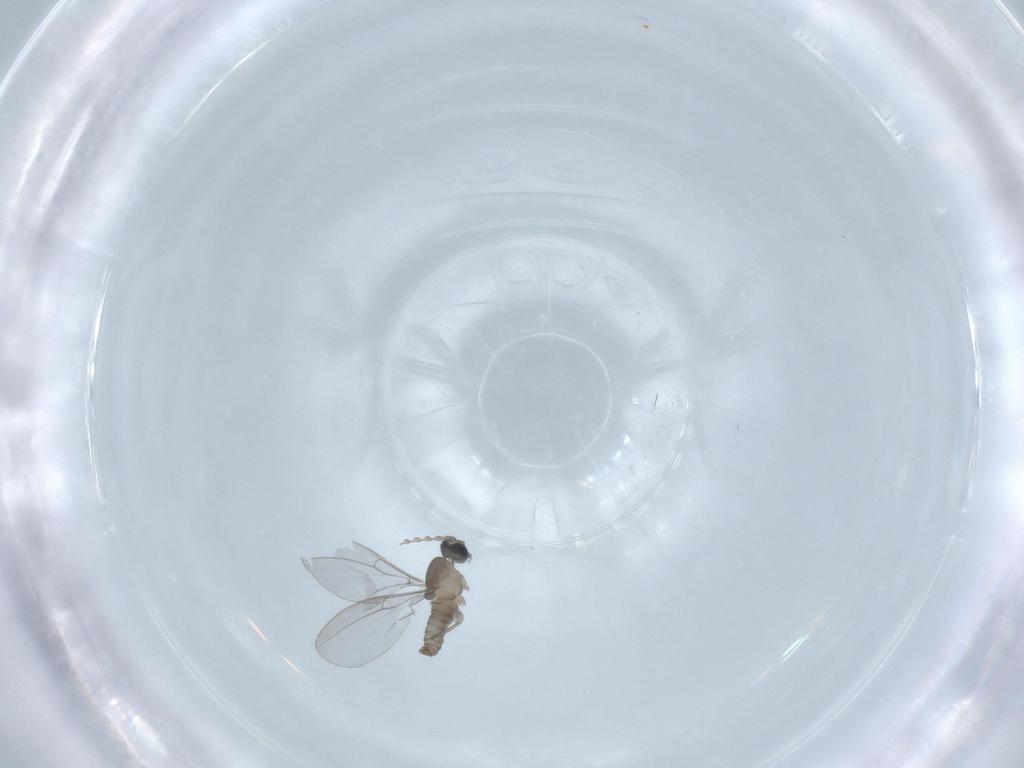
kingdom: Animalia
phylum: Arthropoda
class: Insecta
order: Diptera
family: Cecidomyiidae
